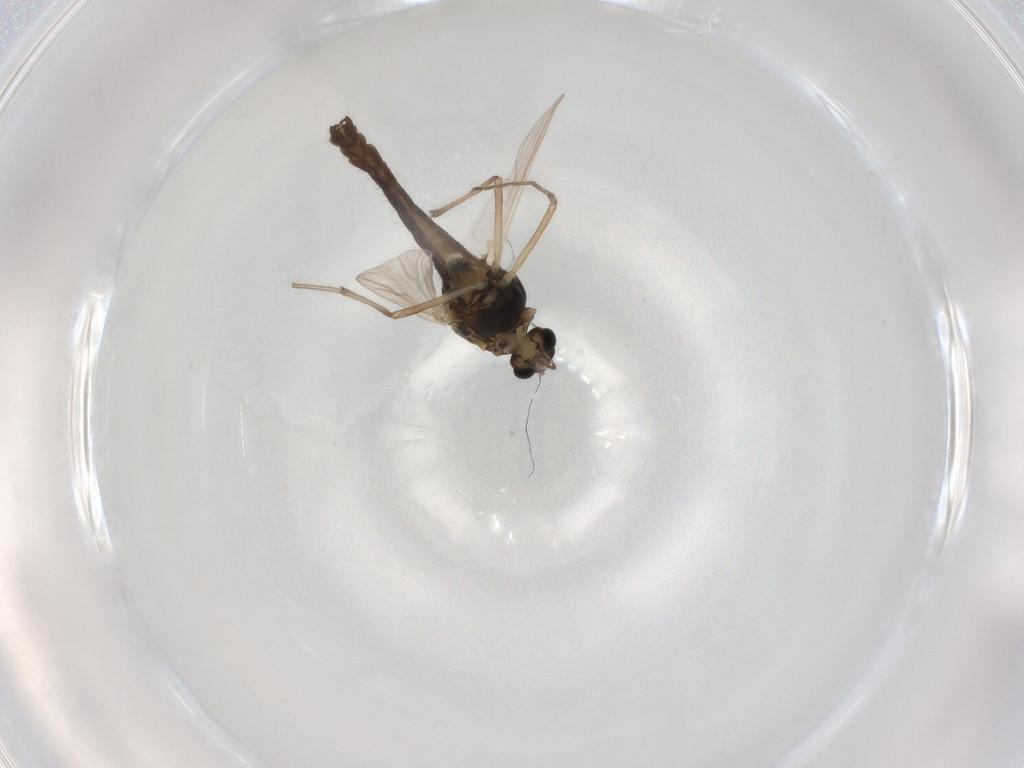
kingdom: Animalia
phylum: Arthropoda
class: Insecta
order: Diptera
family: Chironomidae
